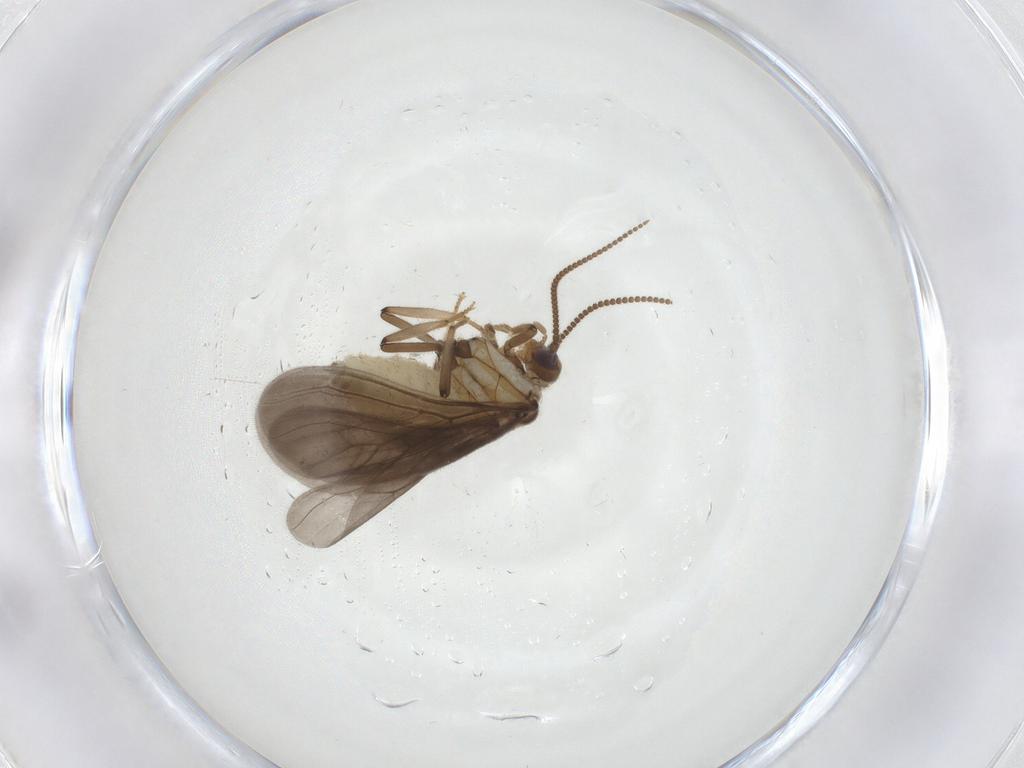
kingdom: Animalia
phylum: Arthropoda
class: Insecta
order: Neuroptera
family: Coniopterygidae
